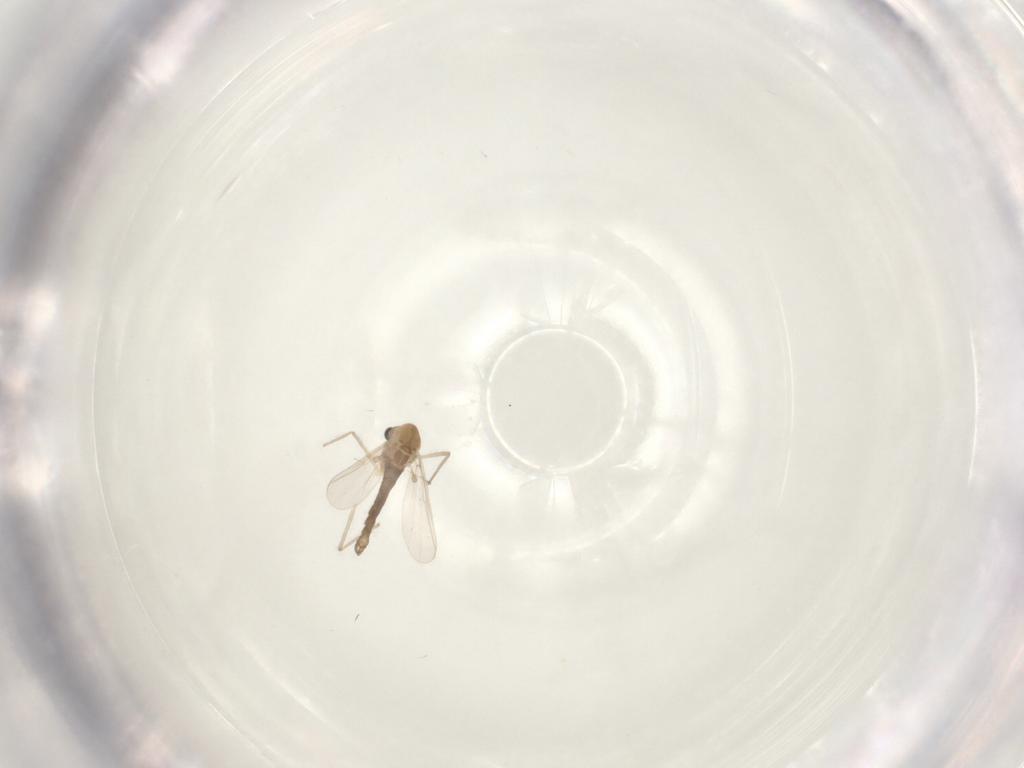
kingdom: Animalia
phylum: Arthropoda
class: Insecta
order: Diptera
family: Chironomidae
